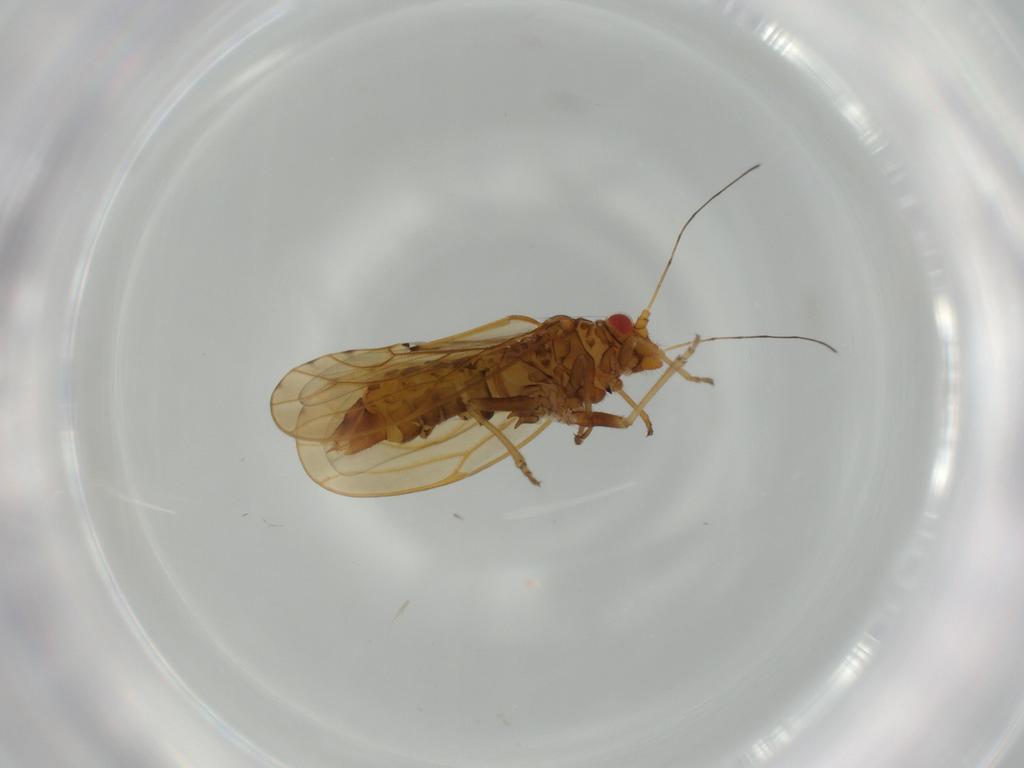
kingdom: Animalia
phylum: Arthropoda
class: Insecta
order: Hemiptera
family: Psylloidea_incertae_sedis
